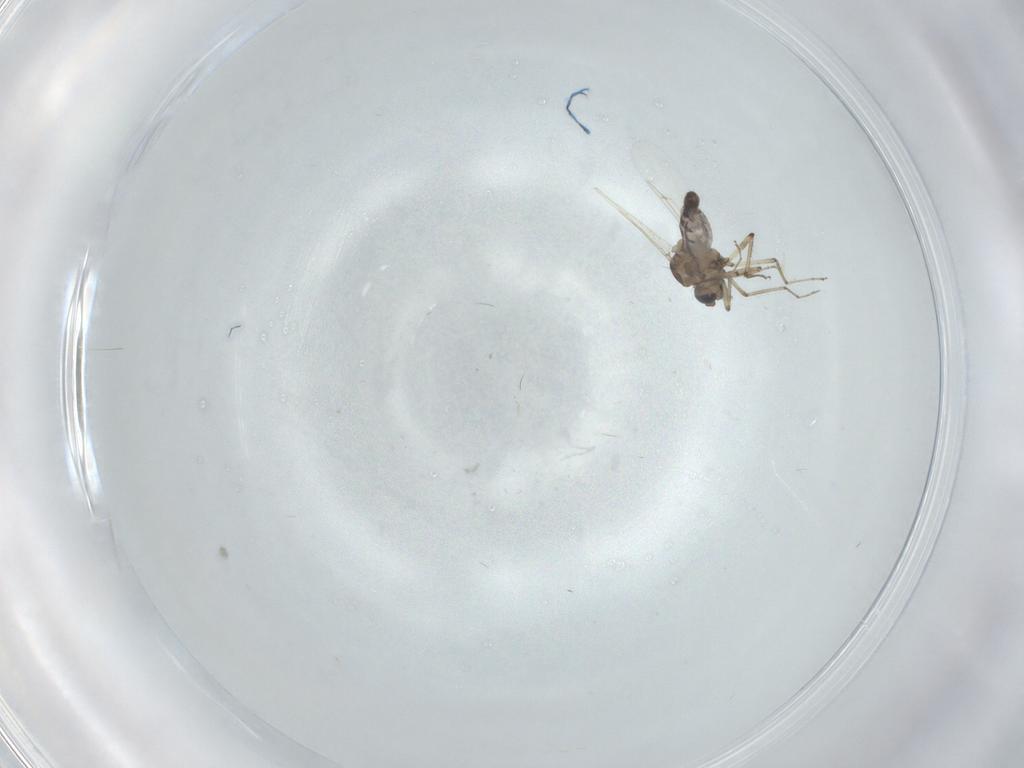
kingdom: Animalia
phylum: Arthropoda
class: Insecta
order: Diptera
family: Ceratopogonidae
